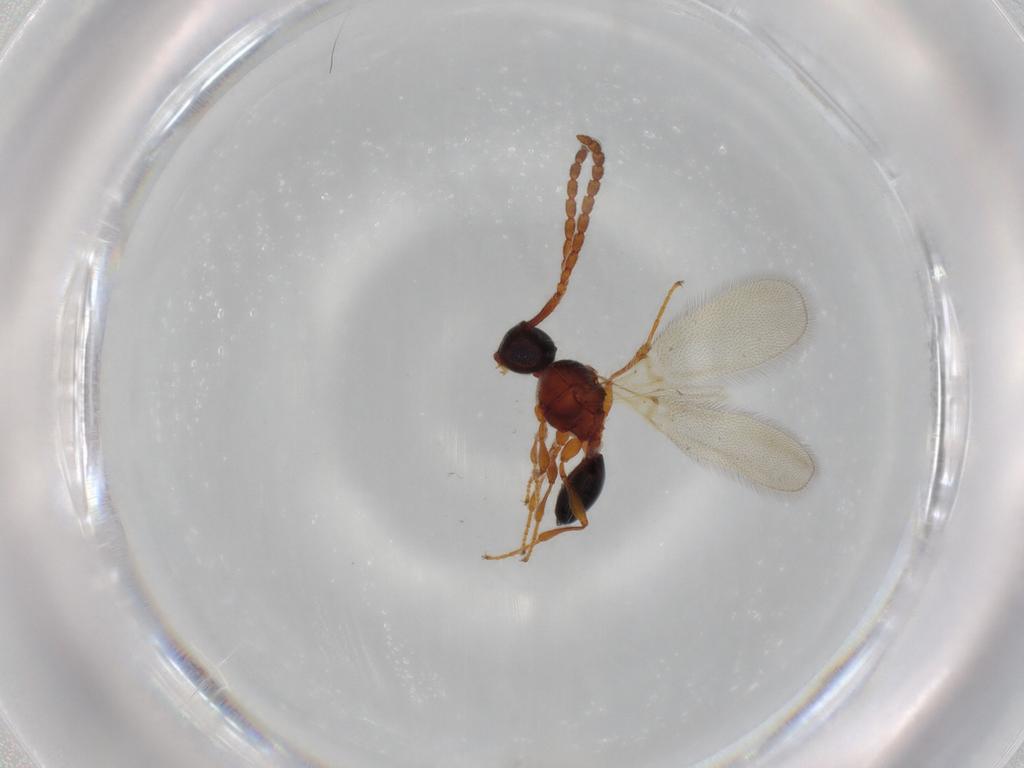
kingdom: Animalia
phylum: Arthropoda
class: Insecta
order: Hymenoptera
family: Diapriidae
